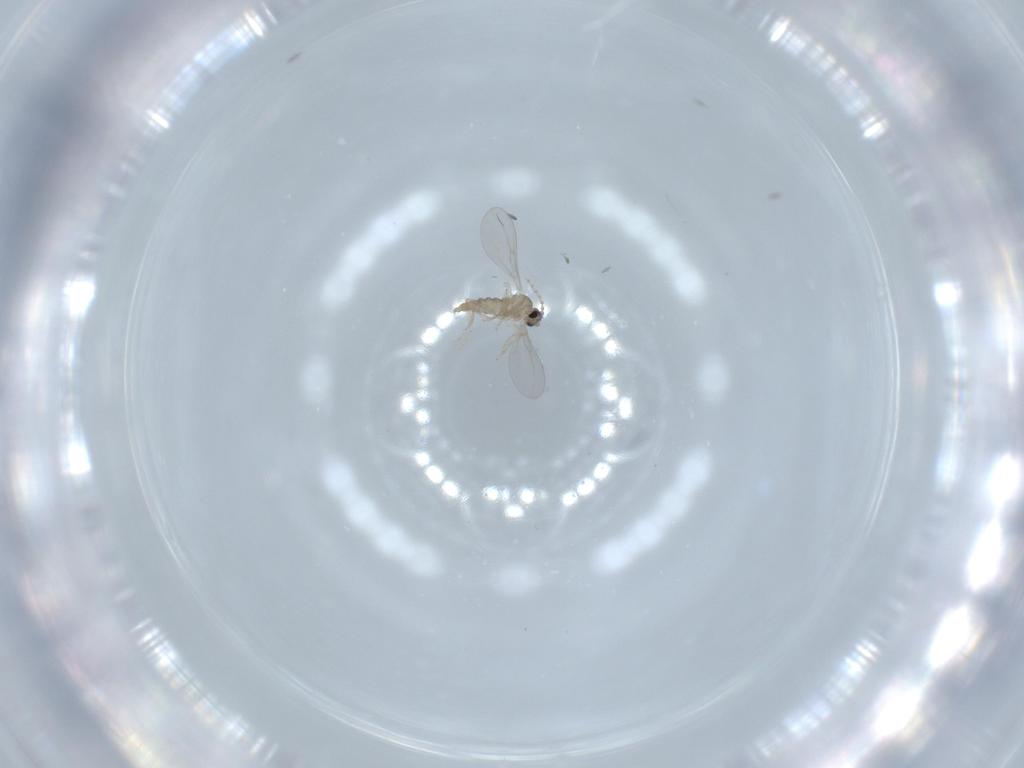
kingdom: Animalia
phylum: Arthropoda
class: Insecta
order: Diptera
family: Cecidomyiidae
